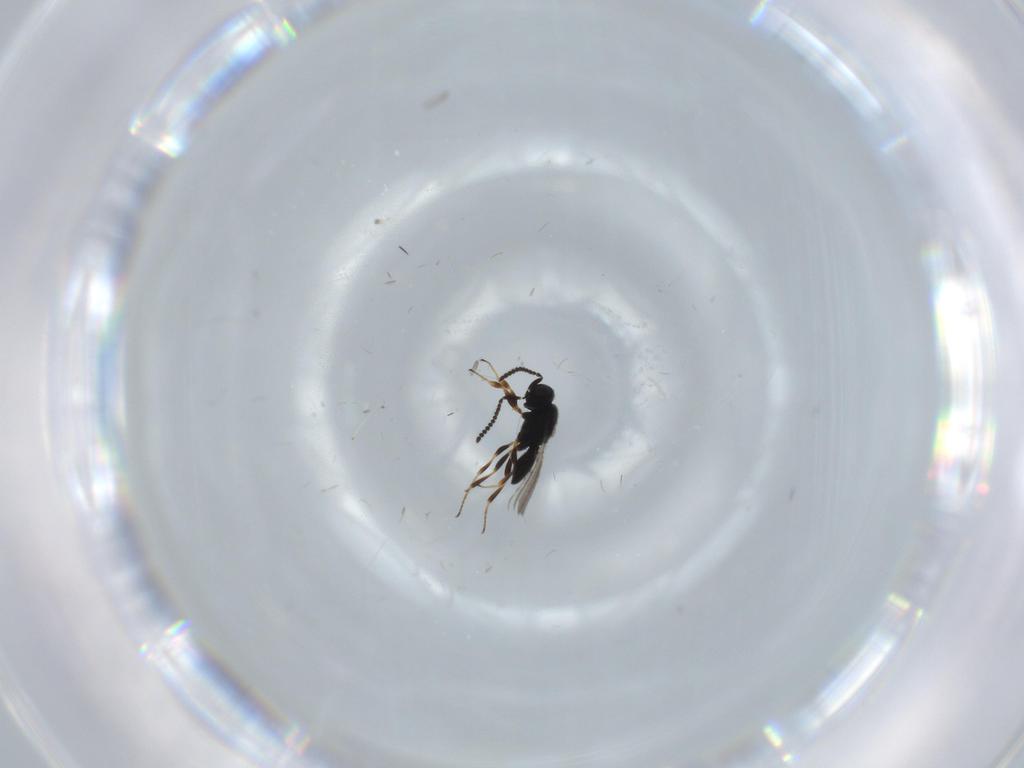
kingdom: Animalia
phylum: Arthropoda
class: Insecta
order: Hymenoptera
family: Scelionidae
